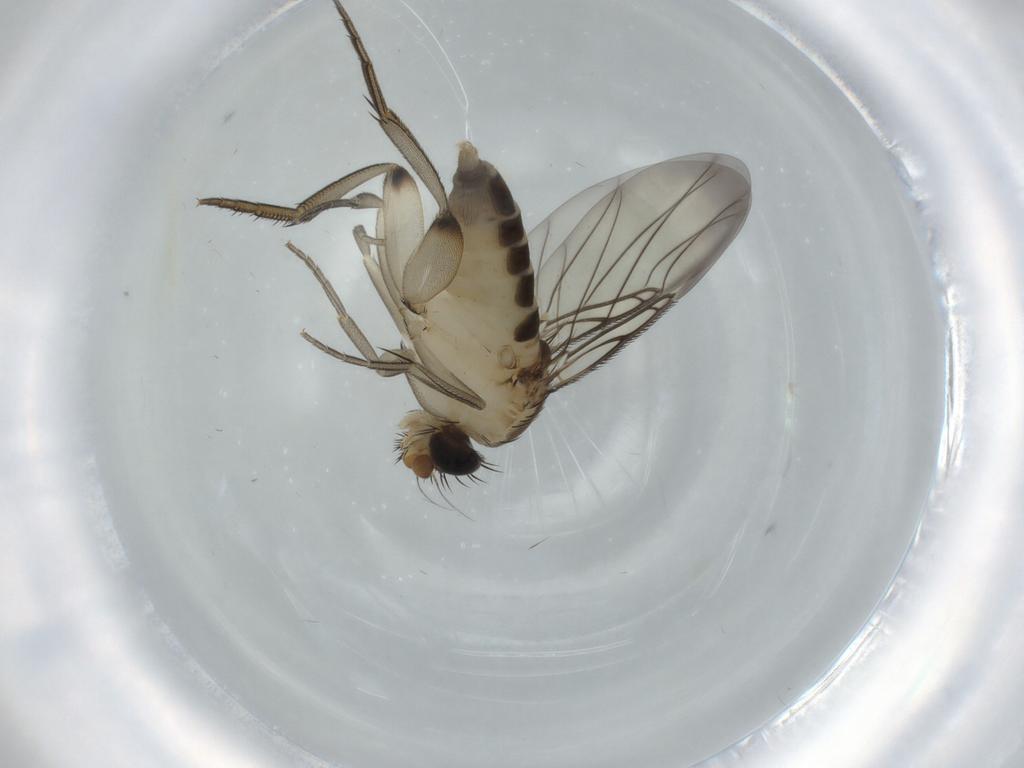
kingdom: Animalia
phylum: Arthropoda
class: Insecta
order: Diptera
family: Phoridae
